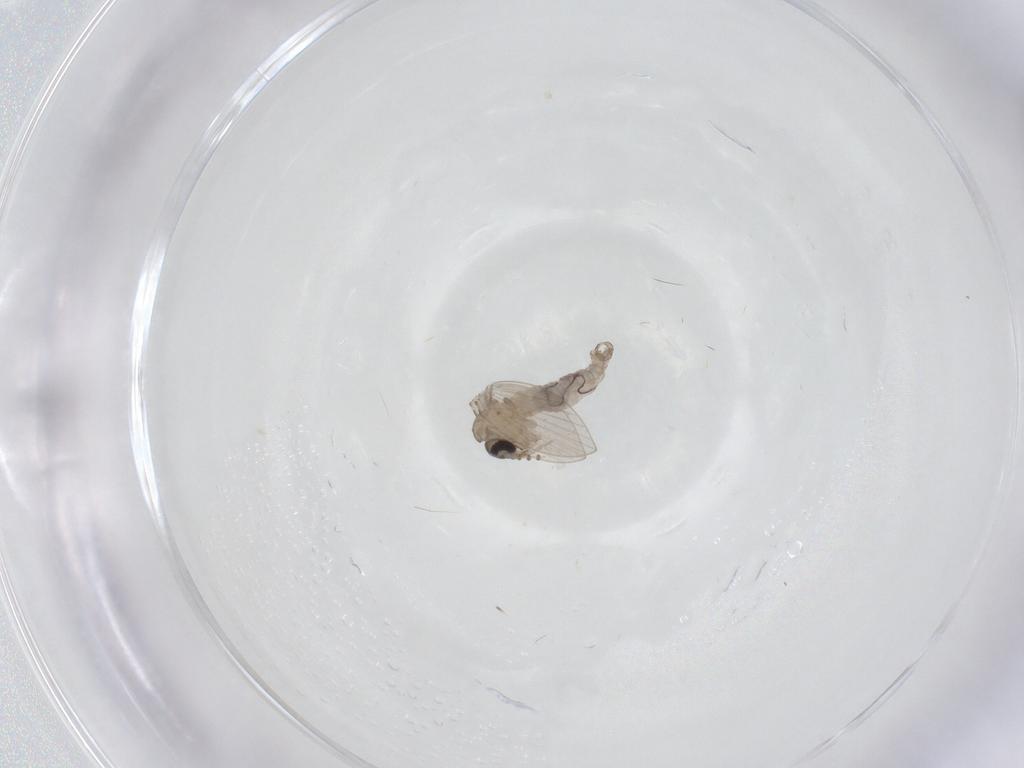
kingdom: Animalia
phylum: Arthropoda
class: Insecta
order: Diptera
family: Psychodidae
